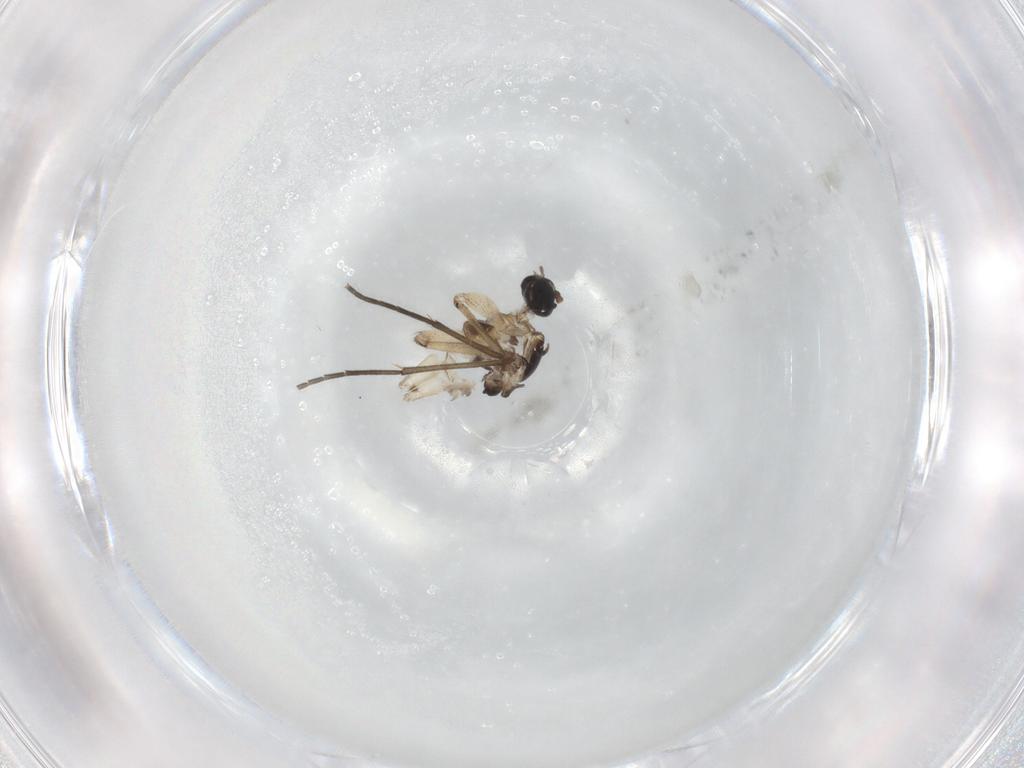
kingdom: Animalia
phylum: Arthropoda
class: Insecta
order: Diptera
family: Sciaridae
